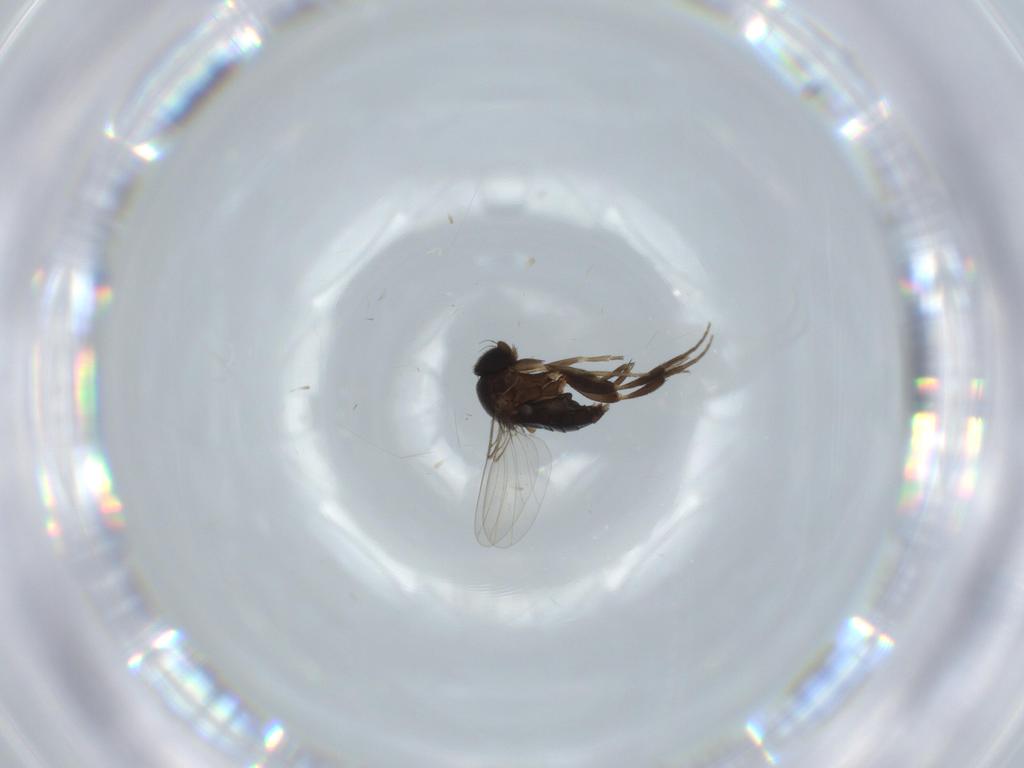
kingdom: Animalia
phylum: Arthropoda
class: Insecta
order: Diptera
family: Phoridae
